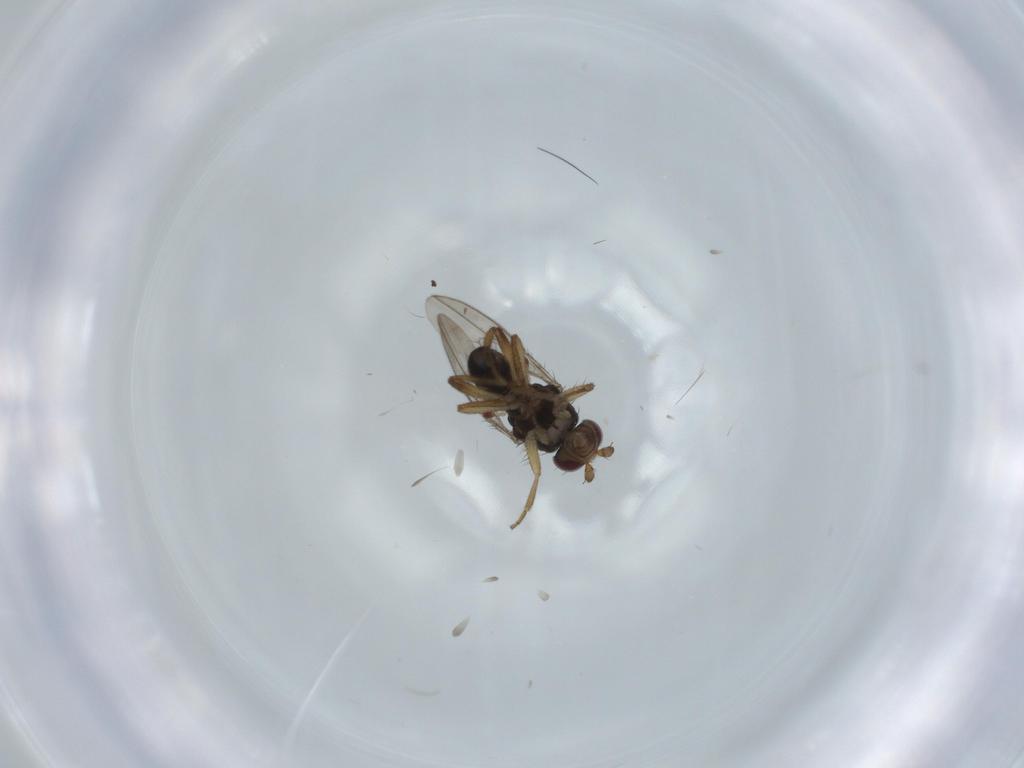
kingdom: Animalia
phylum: Arthropoda
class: Insecta
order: Diptera
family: Sphaeroceridae
